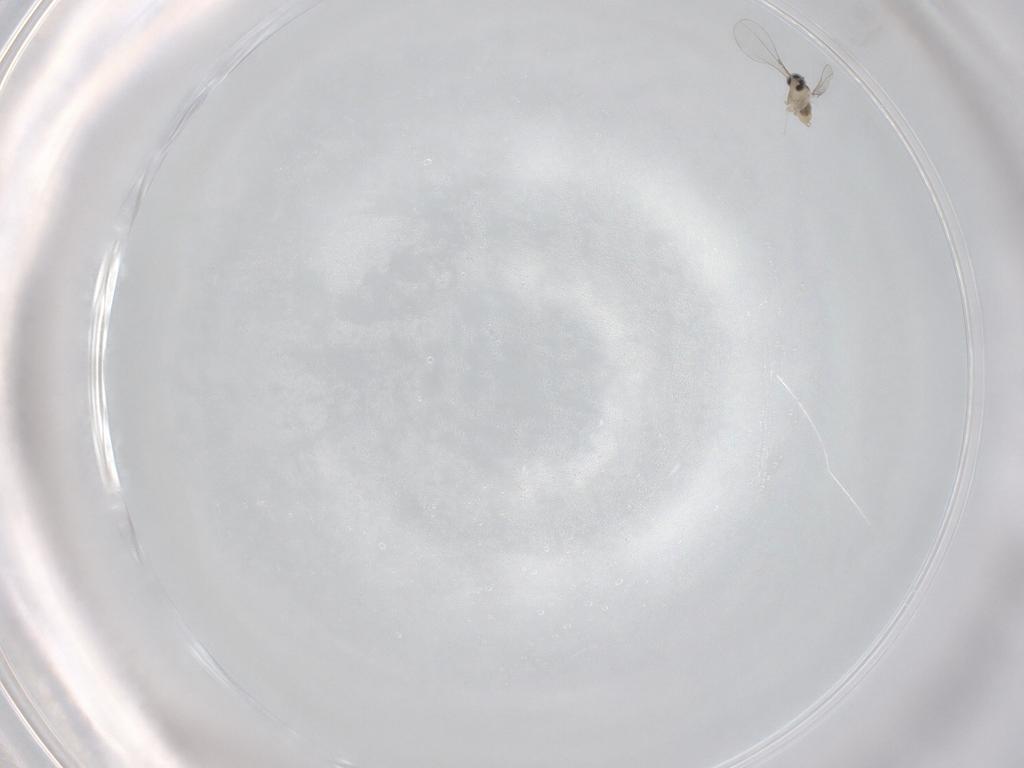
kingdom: Animalia
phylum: Arthropoda
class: Insecta
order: Diptera
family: Cecidomyiidae
